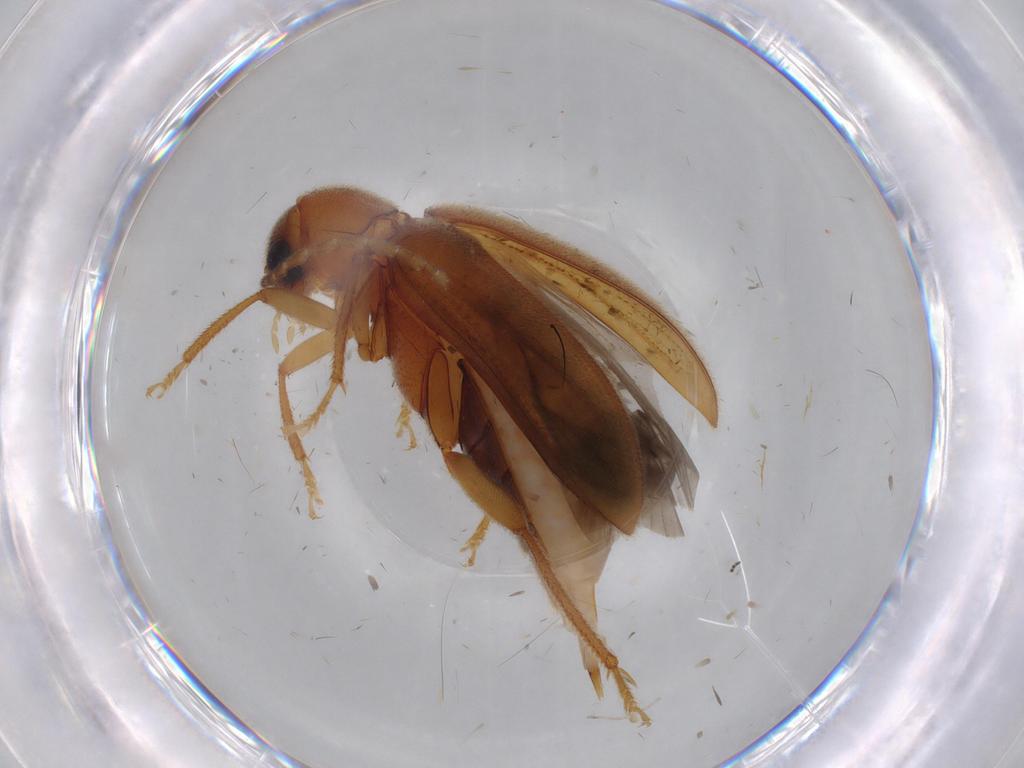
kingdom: Animalia
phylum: Arthropoda
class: Insecta
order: Coleoptera
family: Ptilodactylidae
